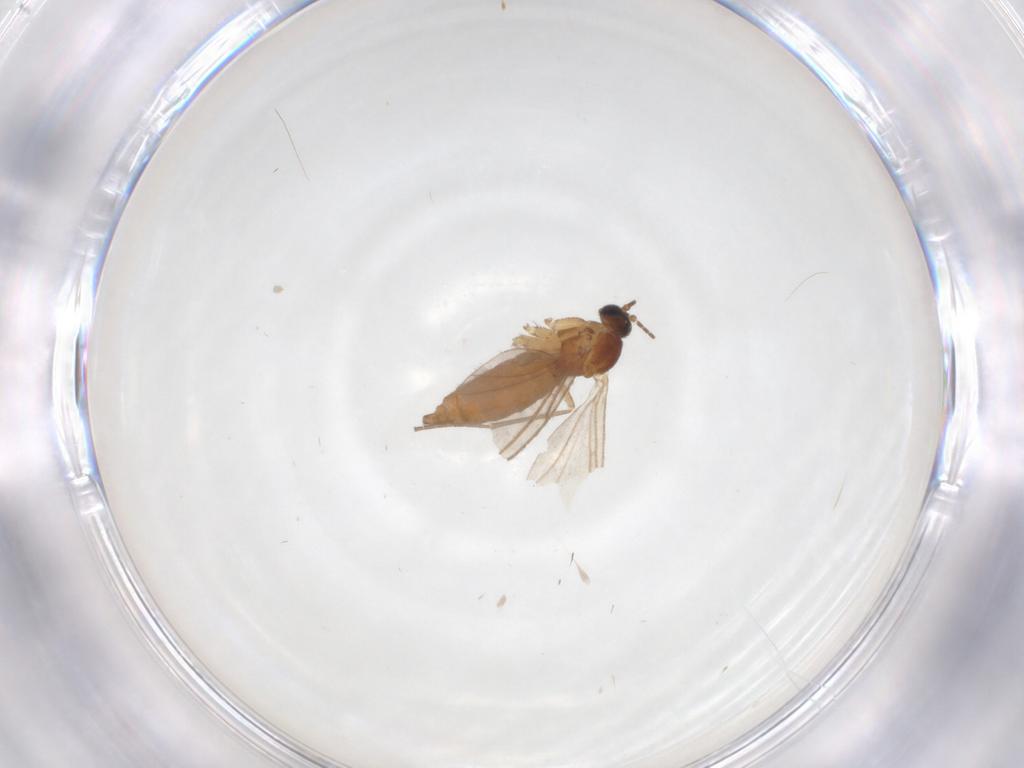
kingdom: Animalia
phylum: Arthropoda
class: Insecta
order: Diptera
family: Sciaridae
